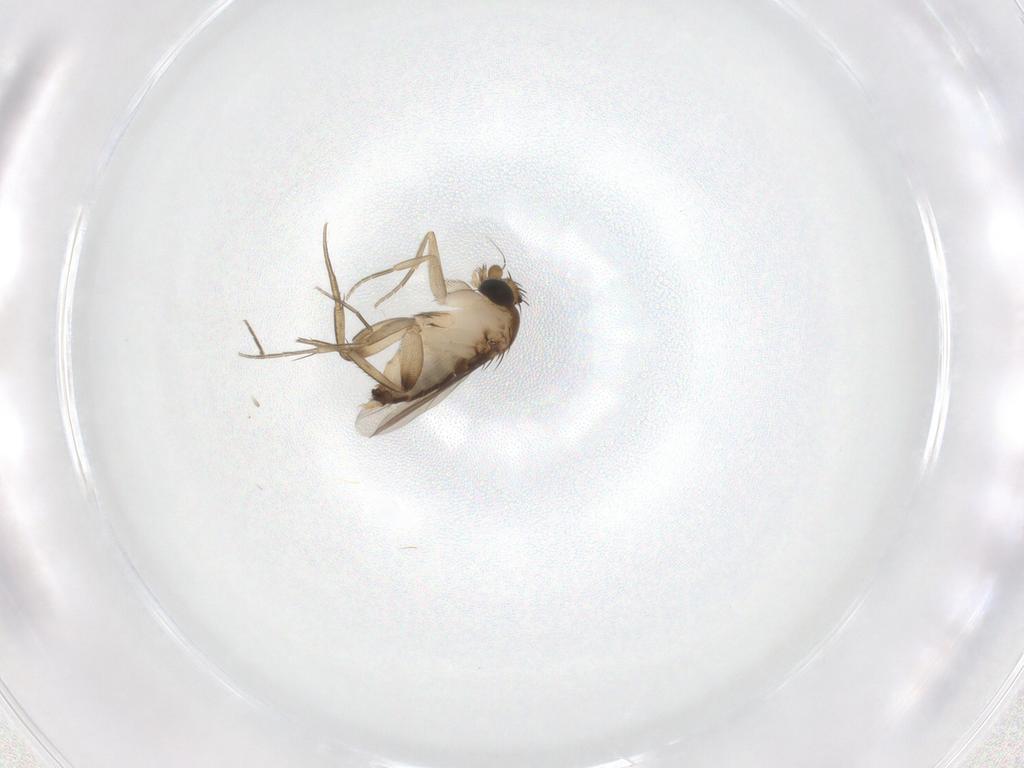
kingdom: Animalia
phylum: Arthropoda
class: Insecta
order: Diptera
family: Phoridae
